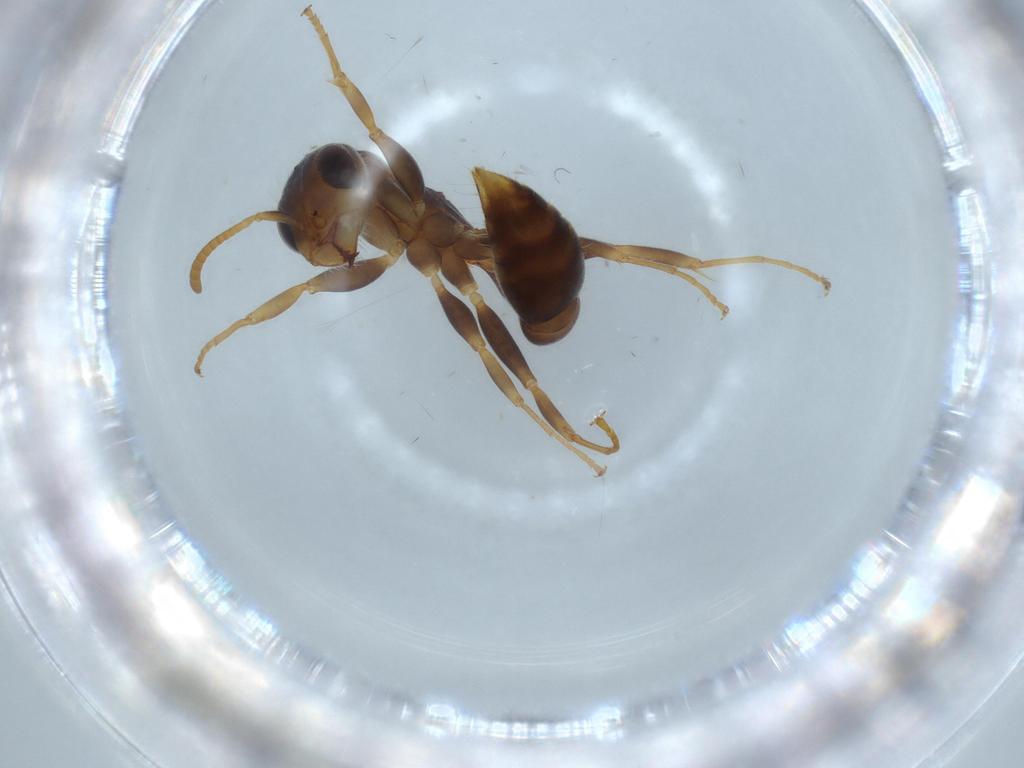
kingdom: Animalia
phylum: Arthropoda
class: Insecta
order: Hymenoptera
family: Formicidae
